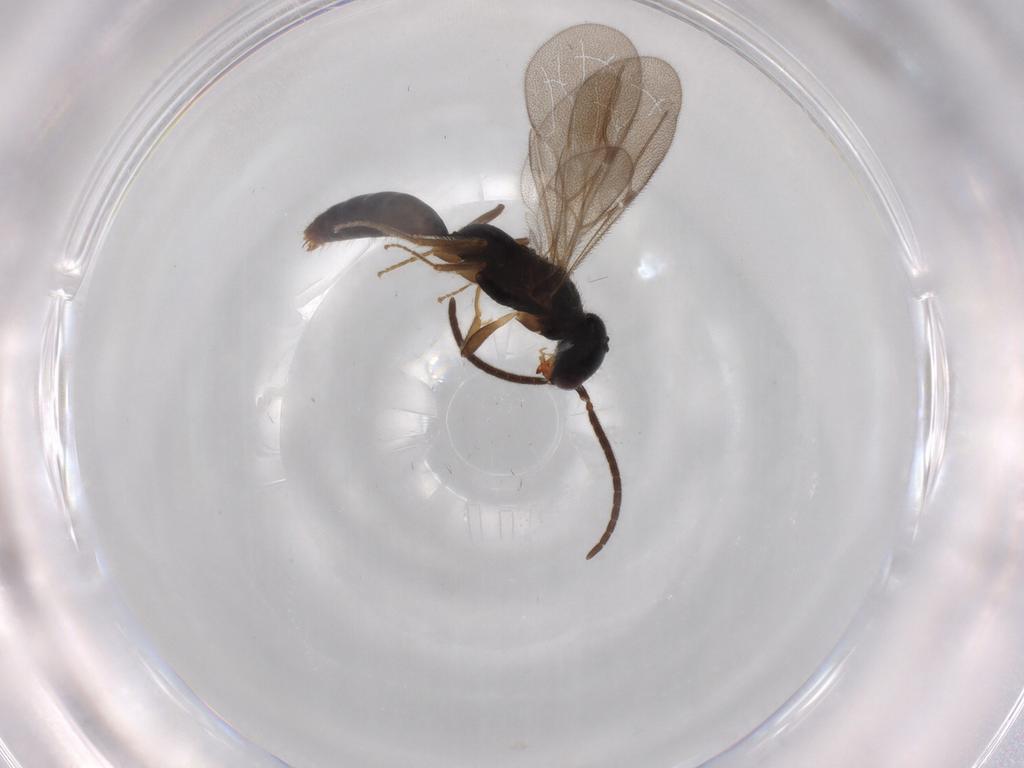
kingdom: Animalia
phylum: Arthropoda
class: Insecta
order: Hymenoptera
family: Bethylidae
